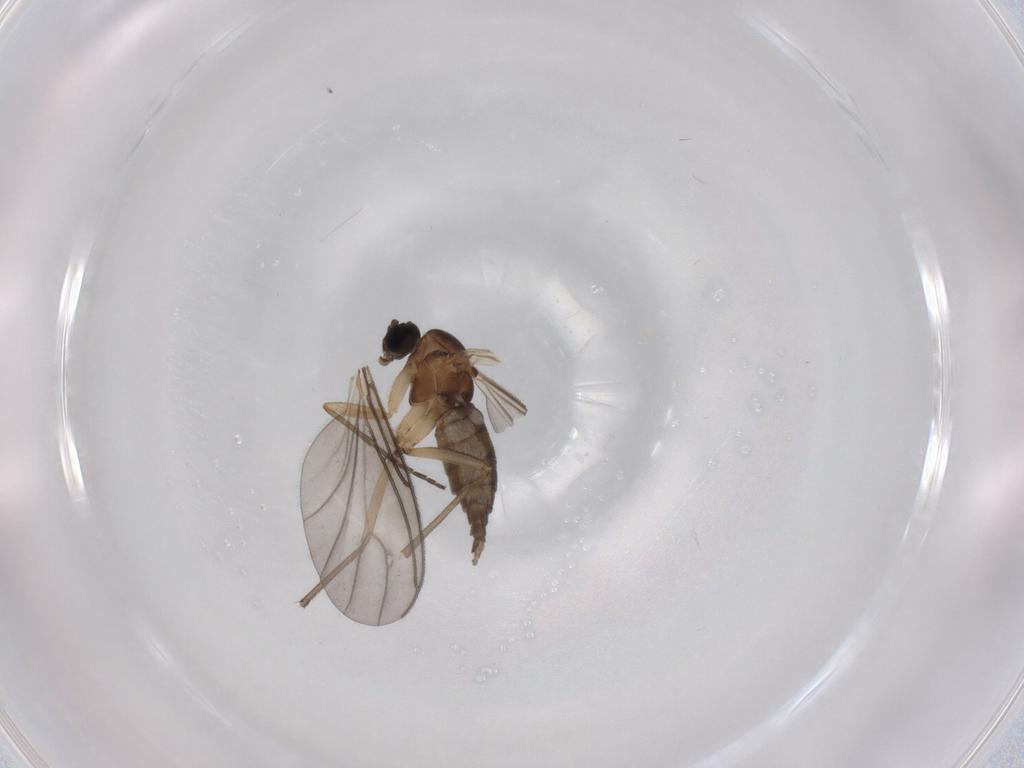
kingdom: Animalia
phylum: Arthropoda
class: Insecta
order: Diptera
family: Sciaridae
